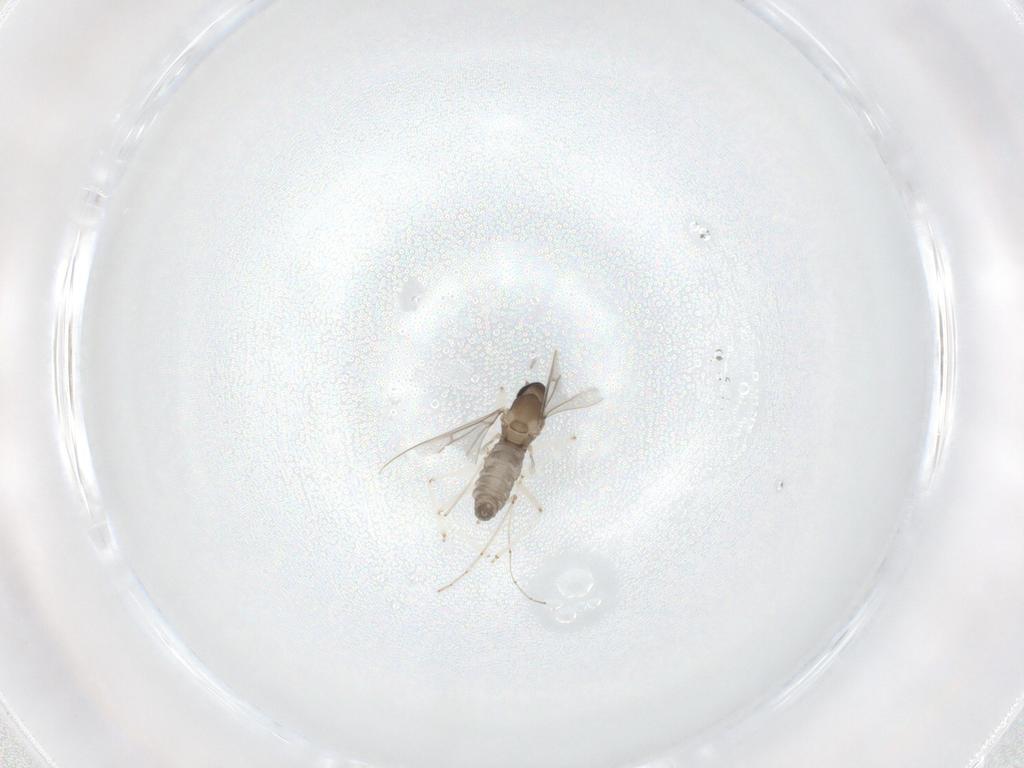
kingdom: Animalia
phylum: Arthropoda
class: Insecta
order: Diptera
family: Cecidomyiidae
